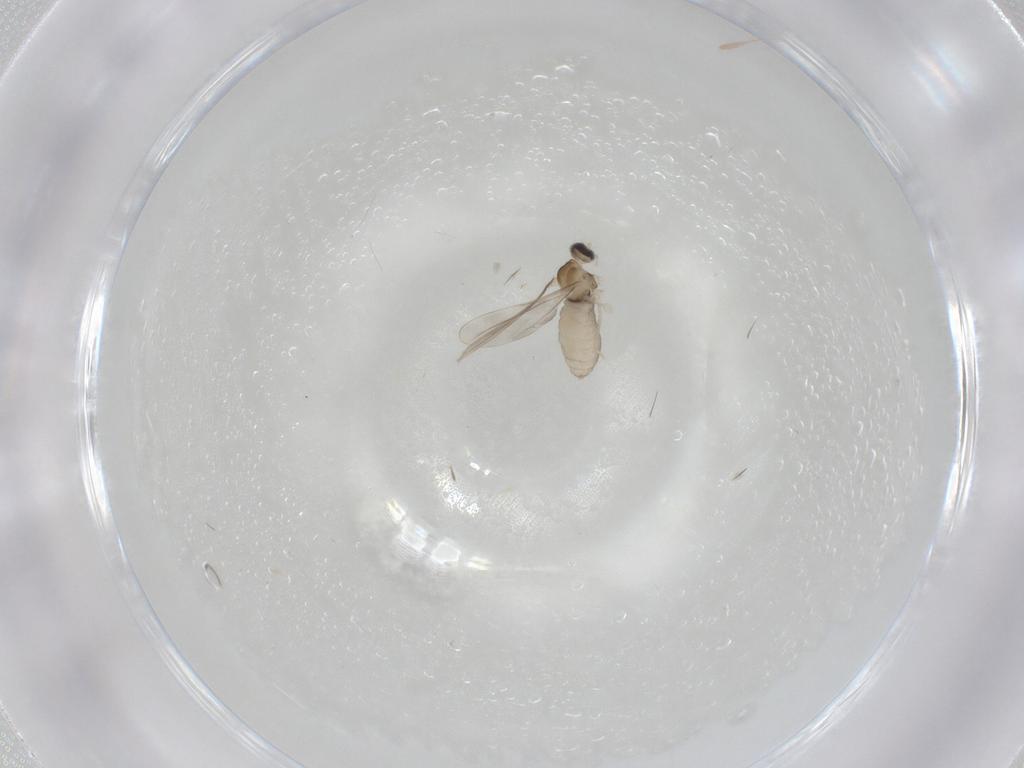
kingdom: Animalia
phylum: Arthropoda
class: Insecta
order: Diptera
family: Cecidomyiidae
